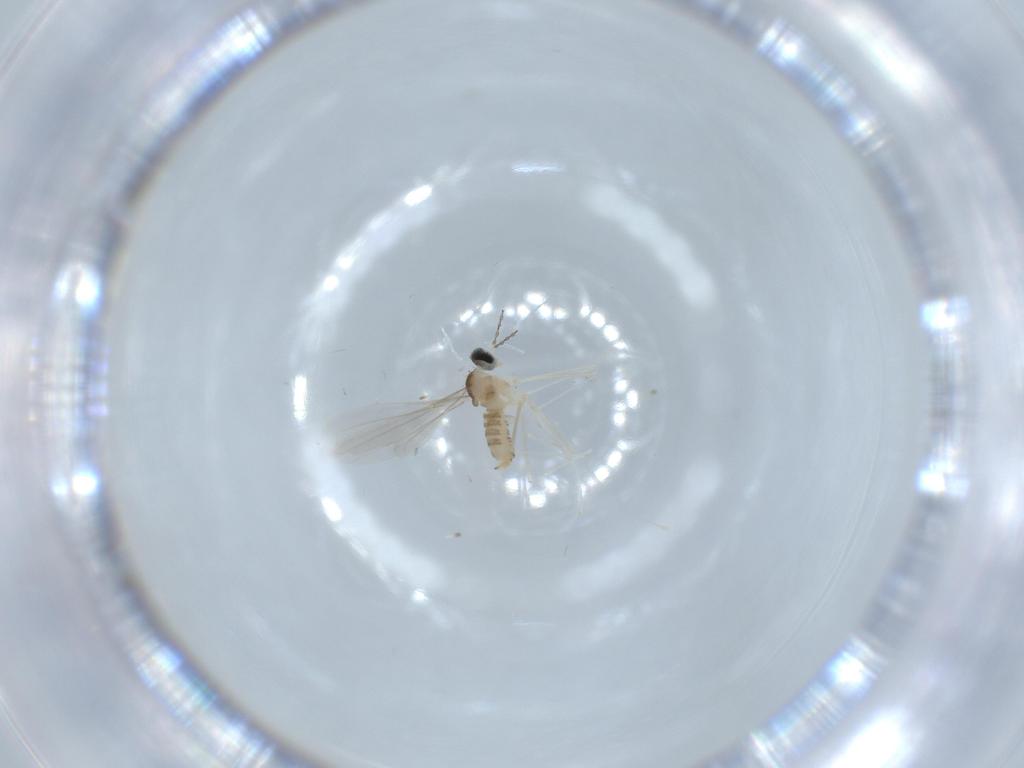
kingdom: Animalia
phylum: Arthropoda
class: Insecta
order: Diptera
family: Cecidomyiidae
